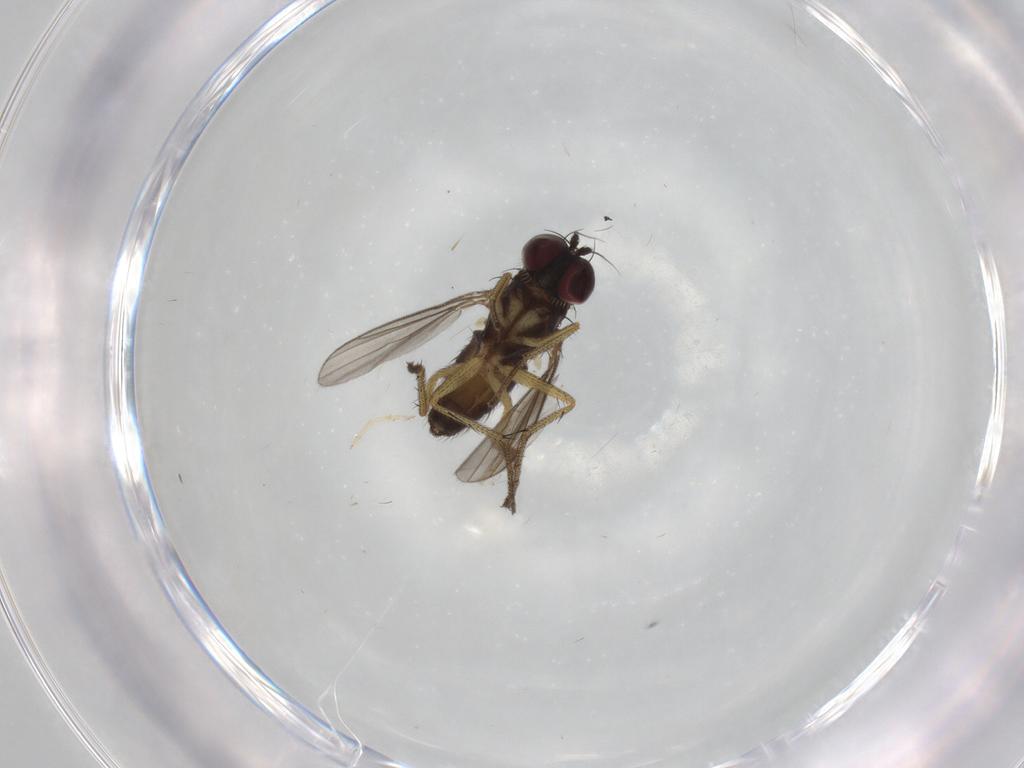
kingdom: Animalia
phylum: Arthropoda
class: Insecta
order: Diptera
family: Dolichopodidae
